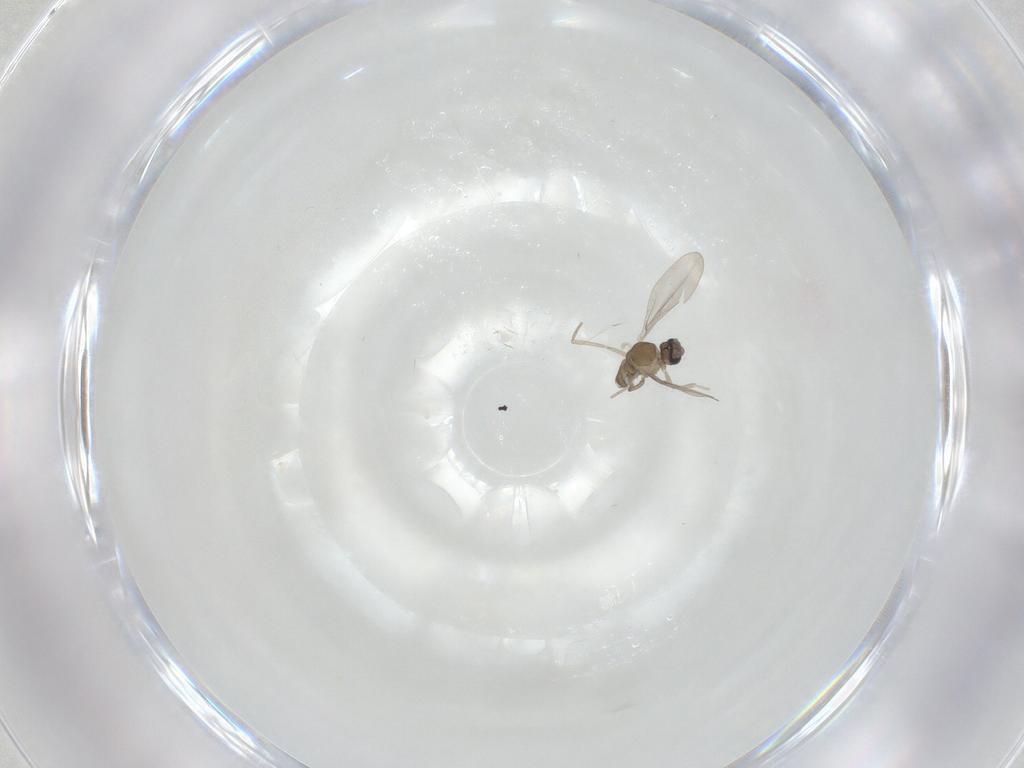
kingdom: Animalia
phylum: Arthropoda
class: Insecta
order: Diptera
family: Cecidomyiidae
